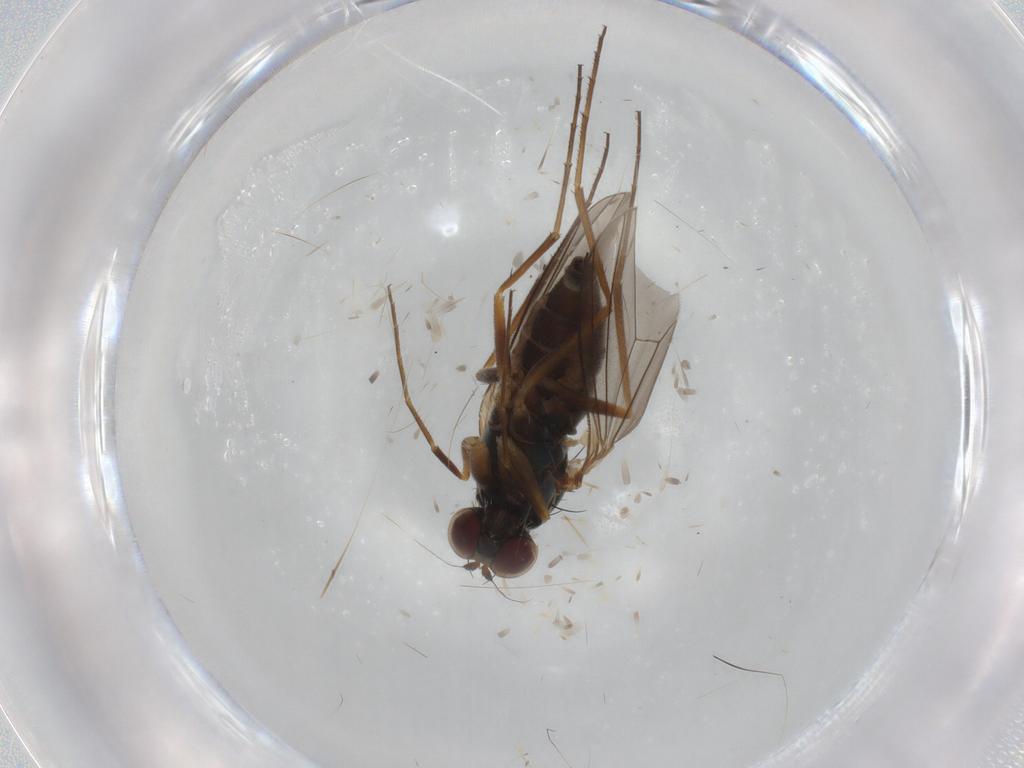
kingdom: Animalia
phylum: Arthropoda
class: Insecta
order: Diptera
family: Dolichopodidae
